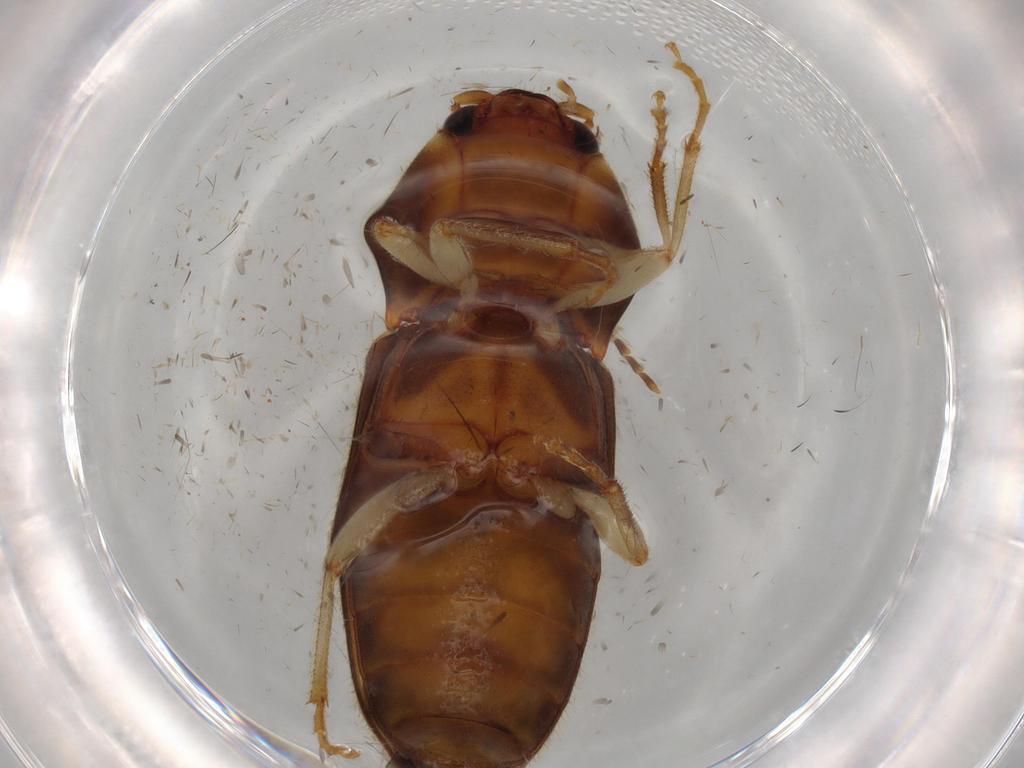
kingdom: Animalia
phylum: Arthropoda
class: Insecta
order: Coleoptera
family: Elateridae
